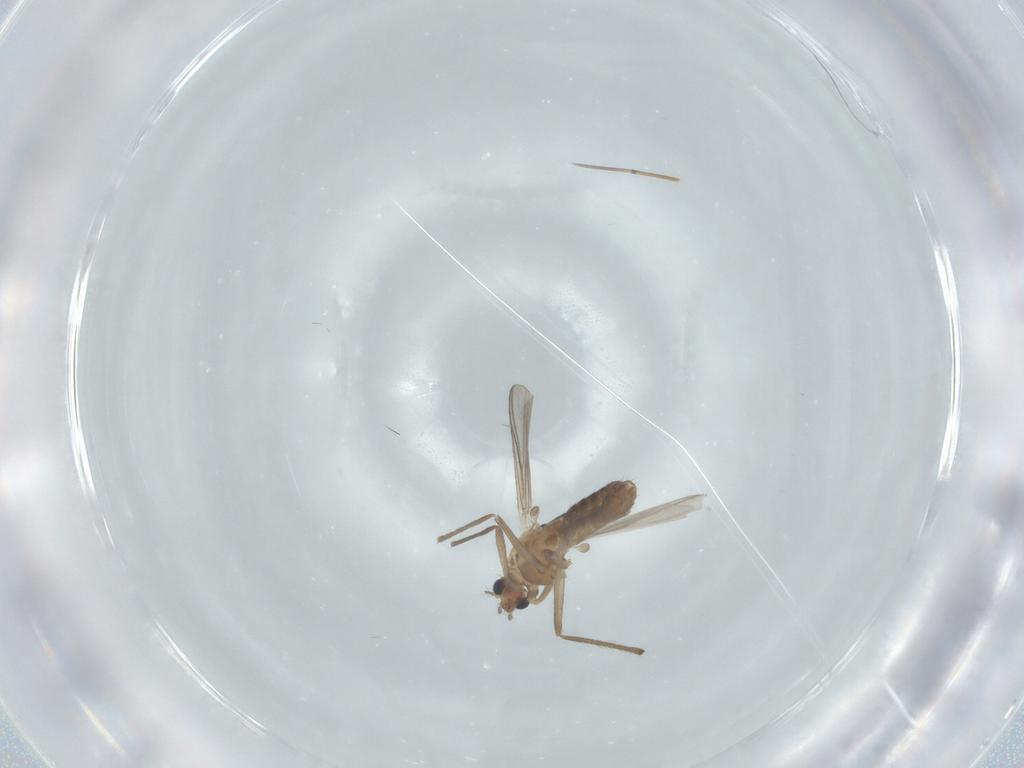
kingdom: Animalia
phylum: Arthropoda
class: Insecta
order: Diptera
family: Chironomidae
